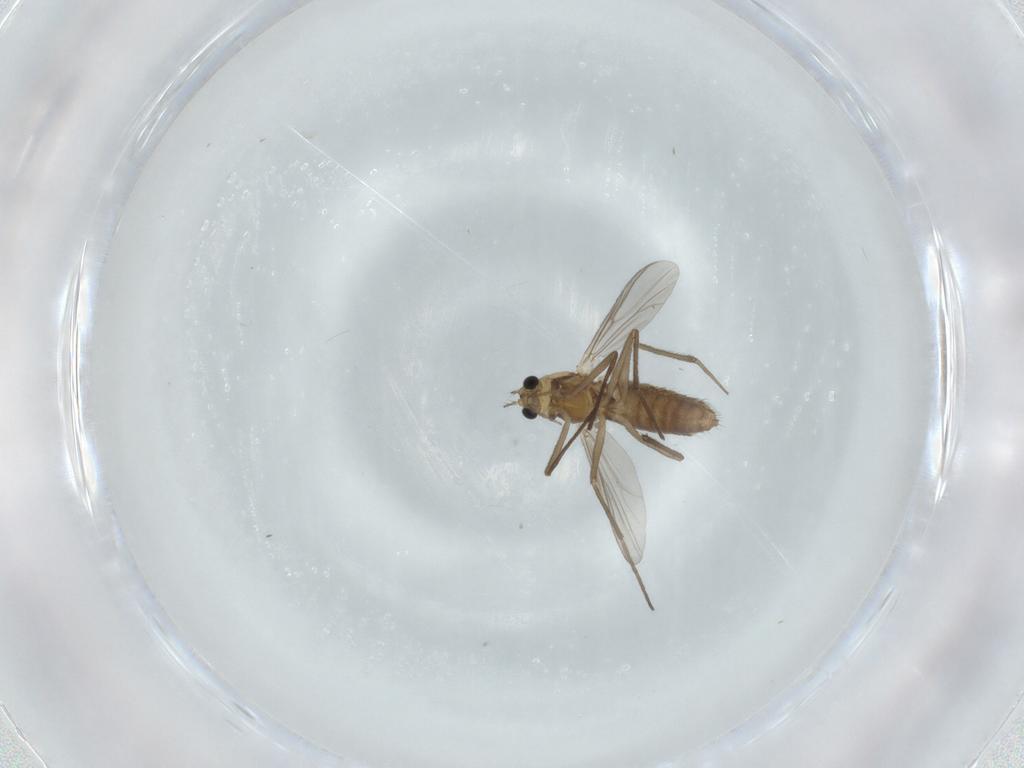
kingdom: Animalia
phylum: Arthropoda
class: Insecta
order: Diptera
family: Chironomidae
